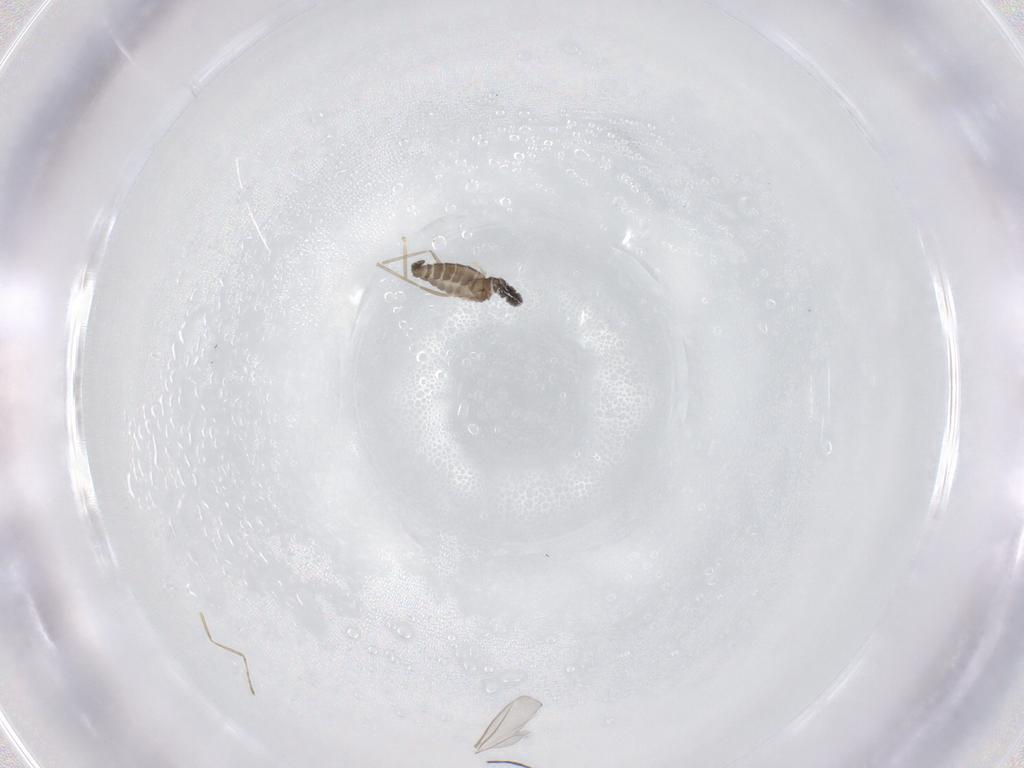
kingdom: Animalia
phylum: Arthropoda
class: Insecta
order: Diptera
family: Cecidomyiidae
